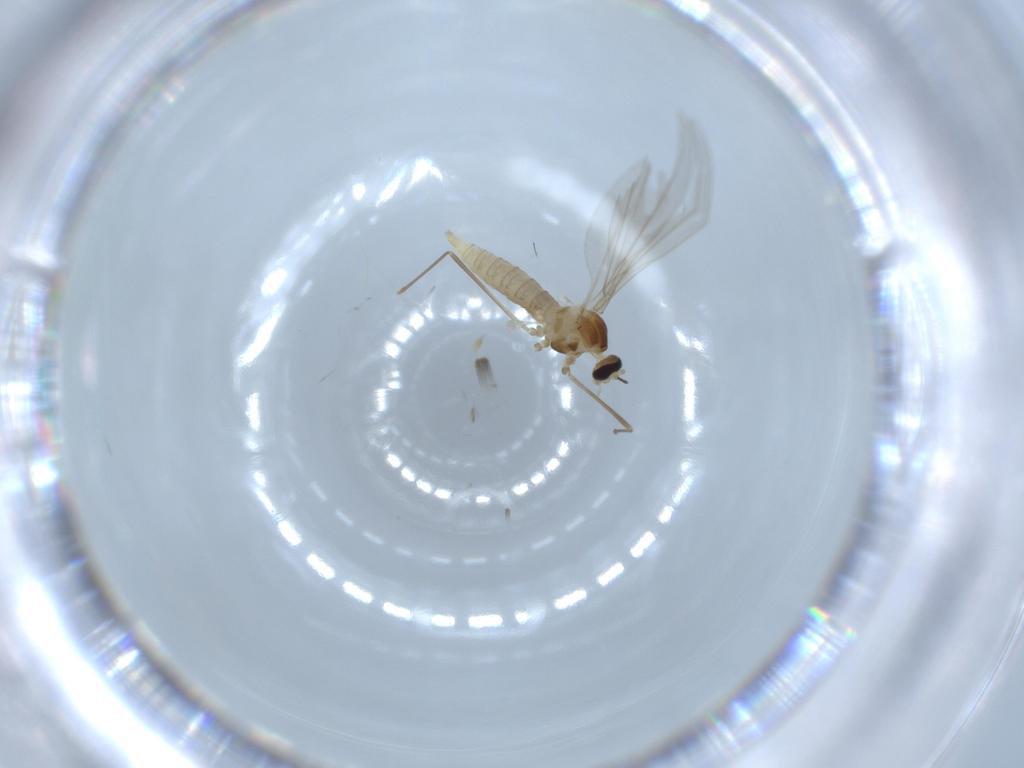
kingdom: Animalia
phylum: Arthropoda
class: Insecta
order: Diptera
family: Cecidomyiidae
